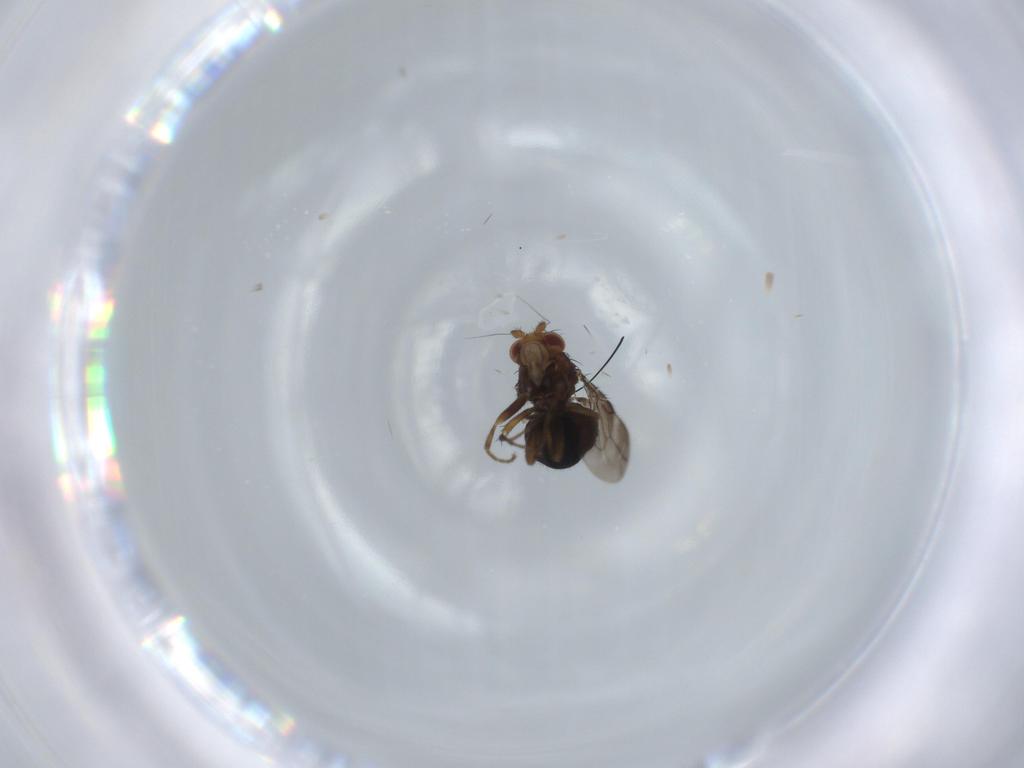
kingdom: Animalia
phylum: Arthropoda
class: Insecta
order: Diptera
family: Sphaeroceridae
